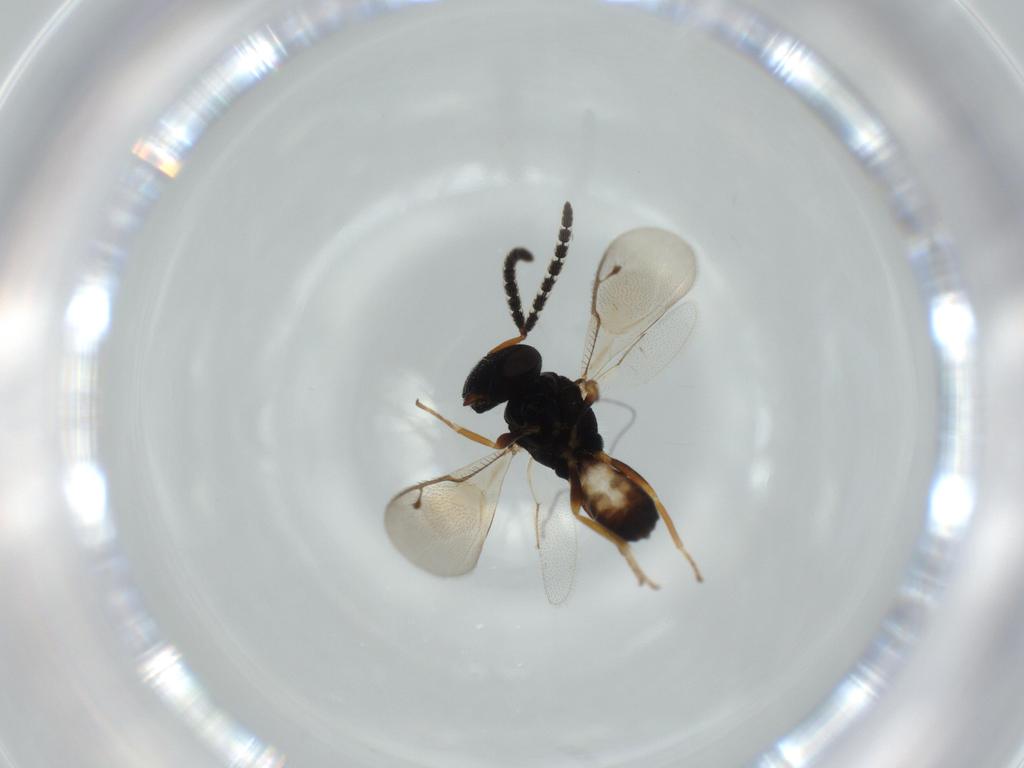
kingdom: Animalia
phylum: Arthropoda
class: Insecta
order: Hymenoptera
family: Pteromalidae
